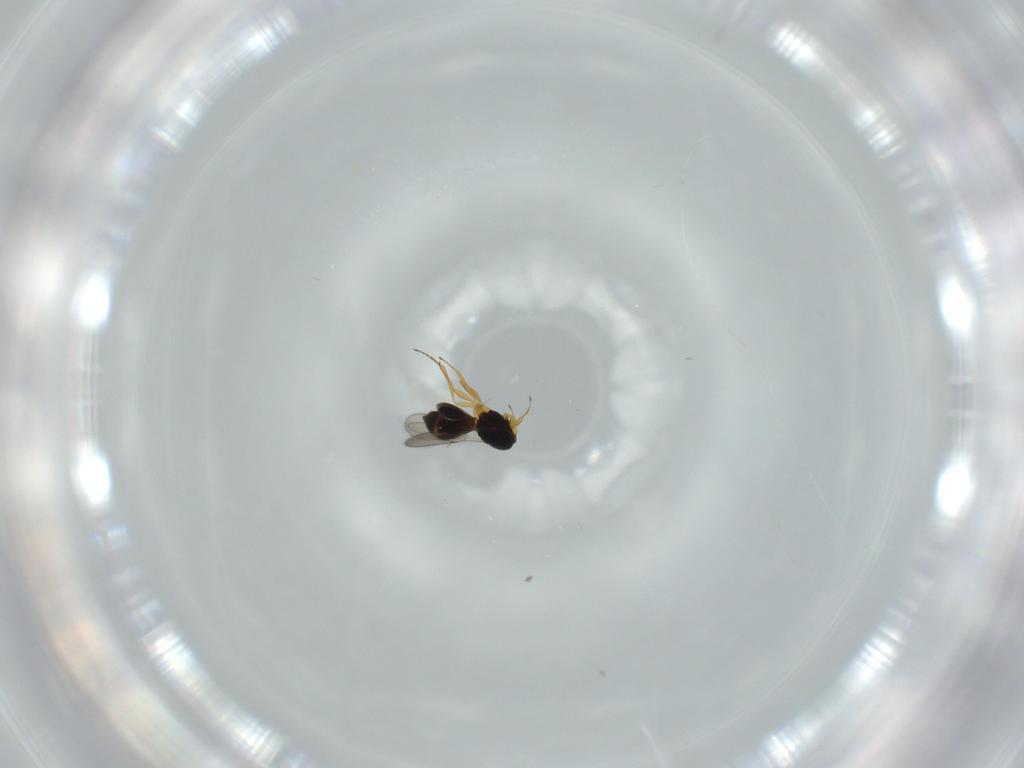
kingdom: Animalia
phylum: Arthropoda
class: Insecta
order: Hymenoptera
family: Scelionidae
